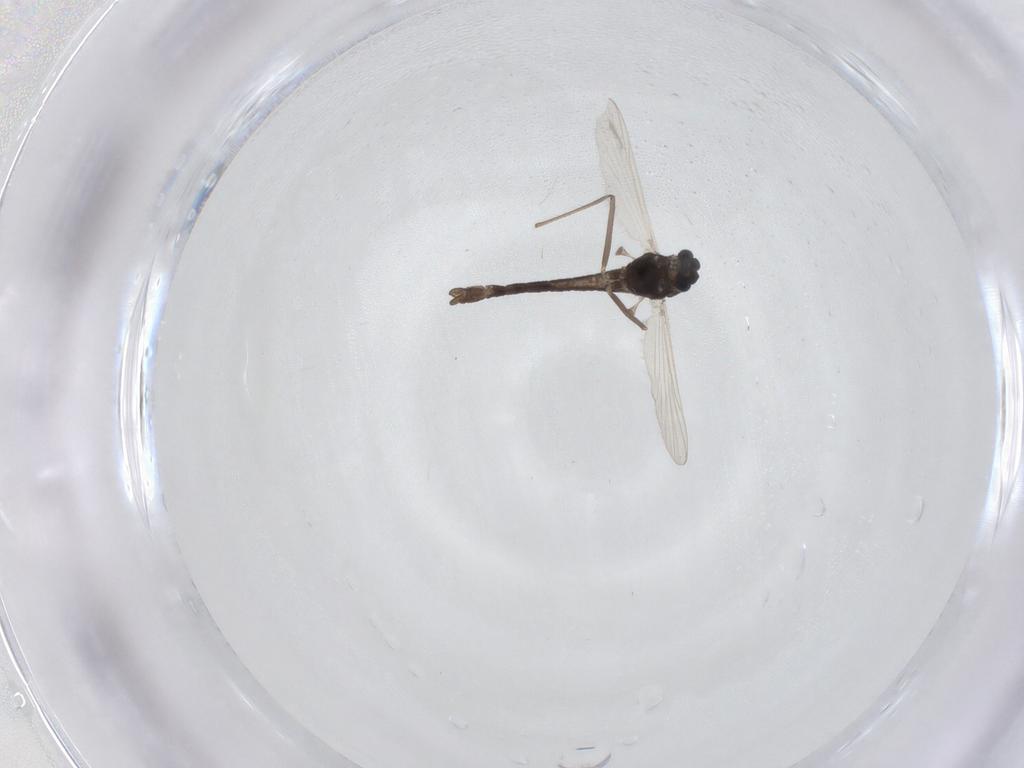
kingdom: Animalia
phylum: Arthropoda
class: Insecta
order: Diptera
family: Chironomidae
